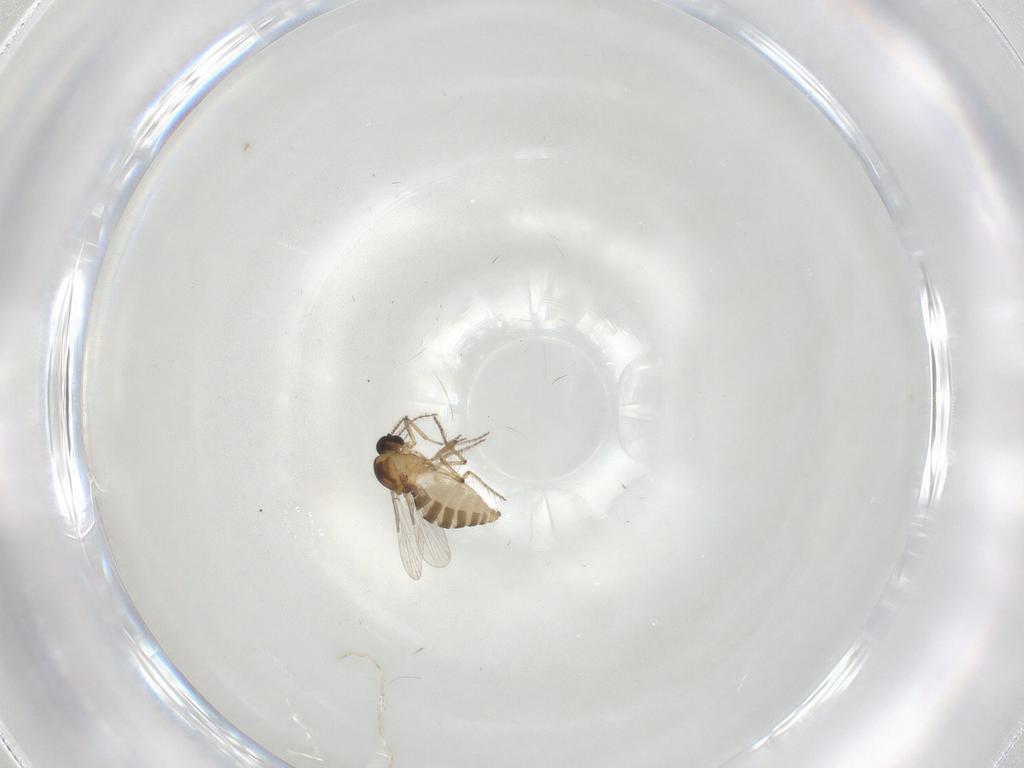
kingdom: Animalia
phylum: Arthropoda
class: Insecta
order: Diptera
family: Ceratopogonidae
